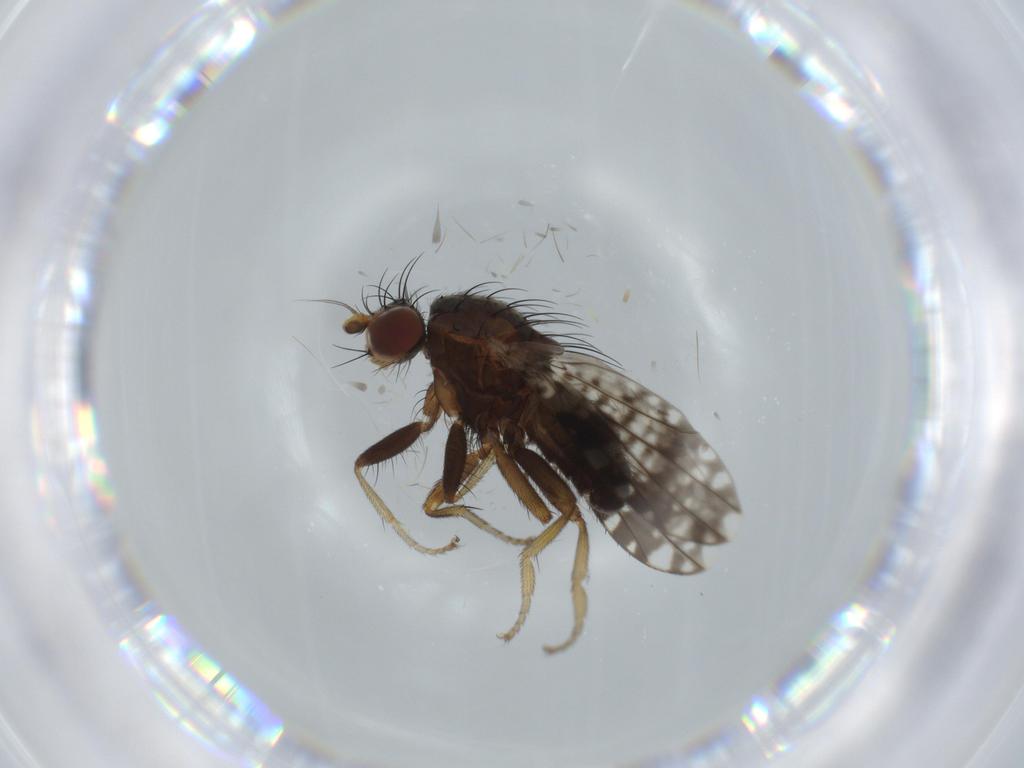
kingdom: Animalia
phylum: Arthropoda
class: Insecta
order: Diptera
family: Tephritidae
